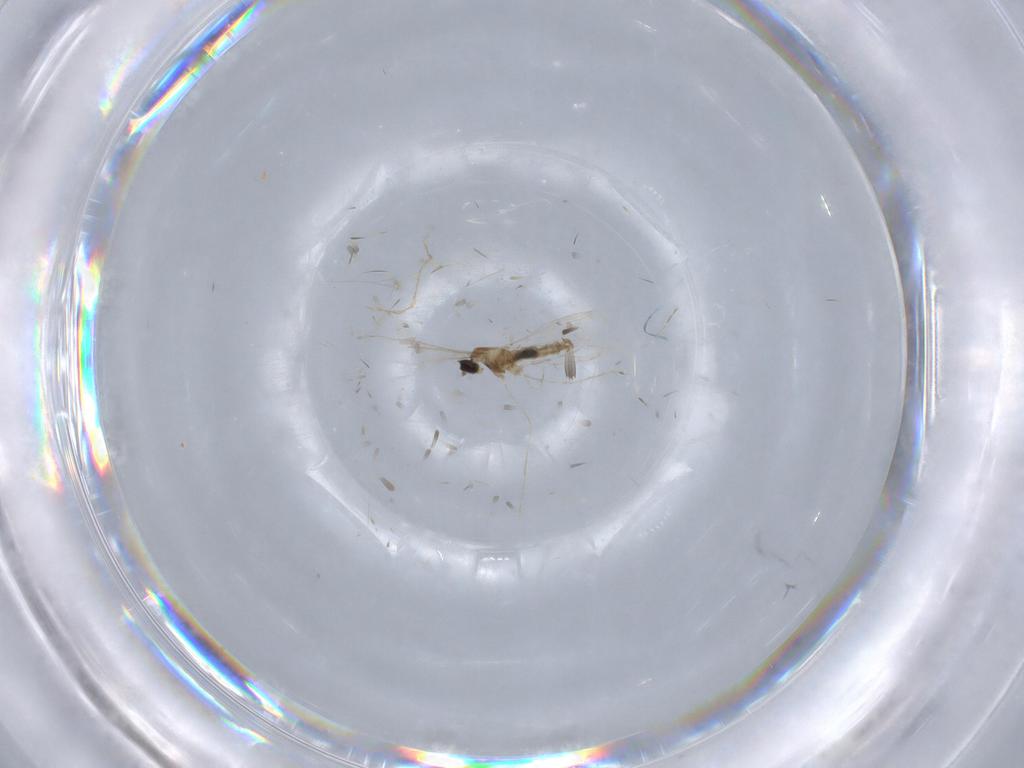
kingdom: Animalia
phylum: Arthropoda
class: Insecta
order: Diptera
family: Cecidomyiidae
